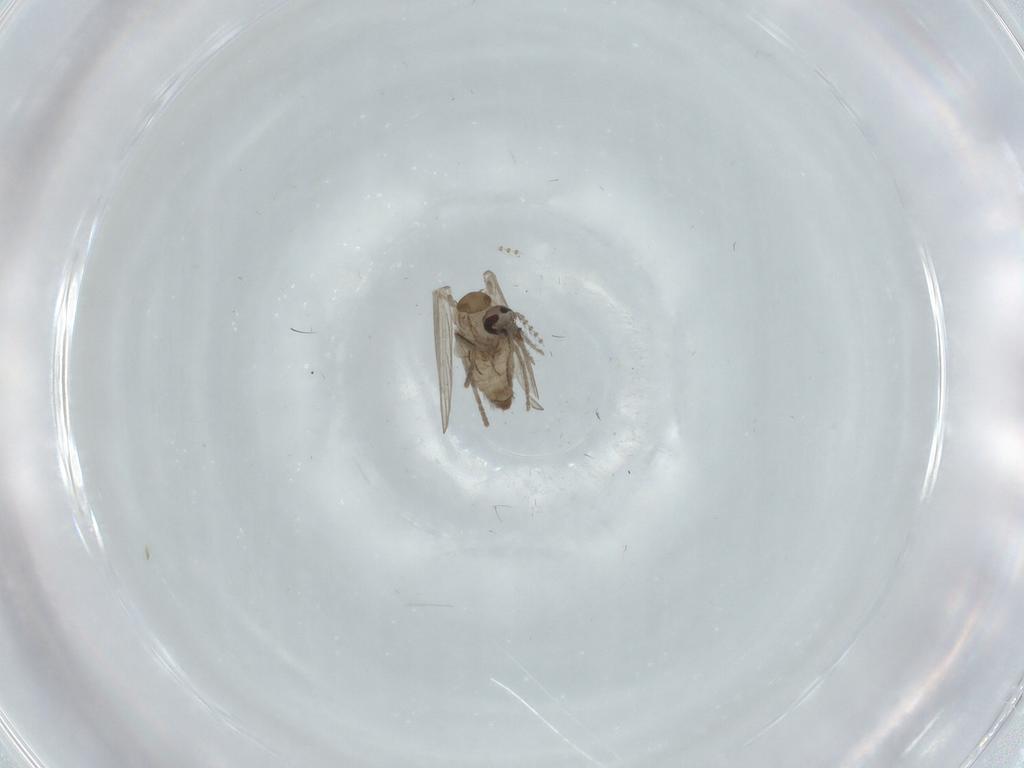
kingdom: Animalia
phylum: Arthropoda
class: Insecta
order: Diptera
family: Psychodidae
